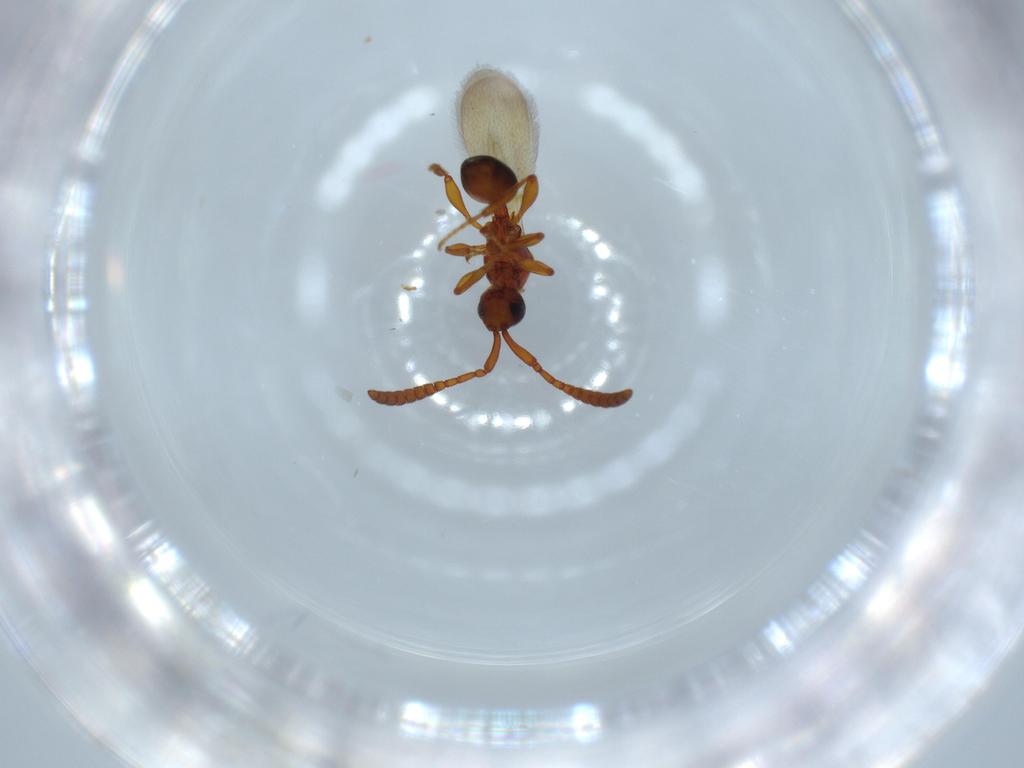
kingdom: Animalia
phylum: Arthropoda
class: Insecta
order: Hymenoptera
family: Diapriidae
